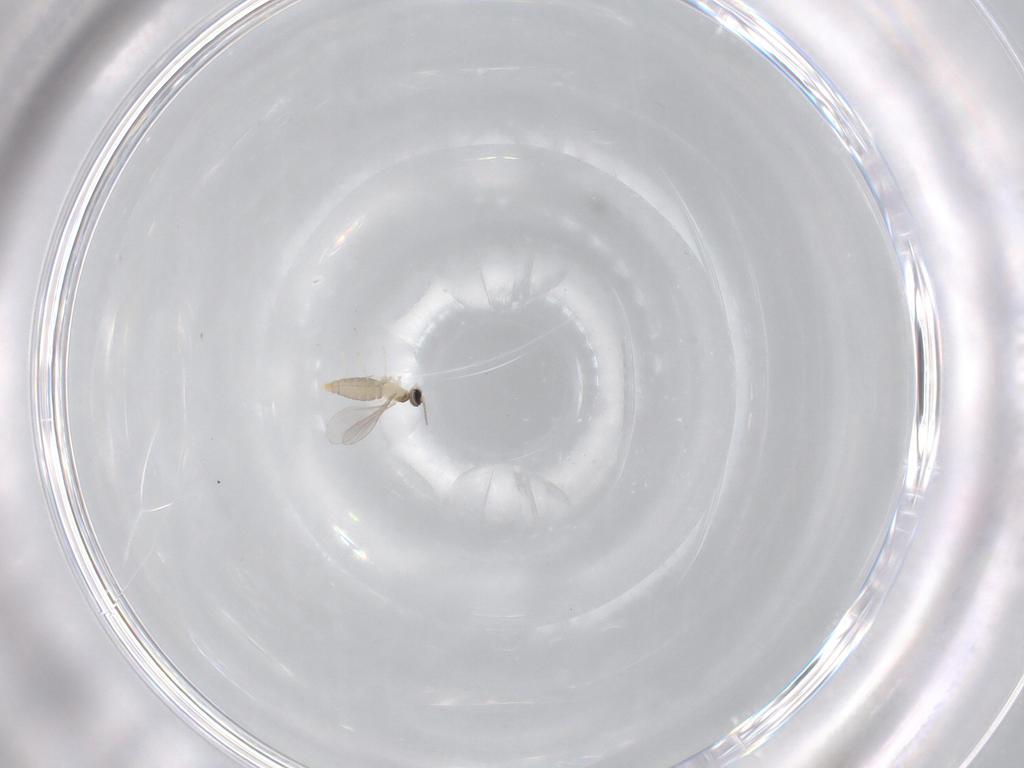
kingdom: Animalia
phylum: Arthropoda
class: Insecta
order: Diptera
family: Cecidomyiidae
